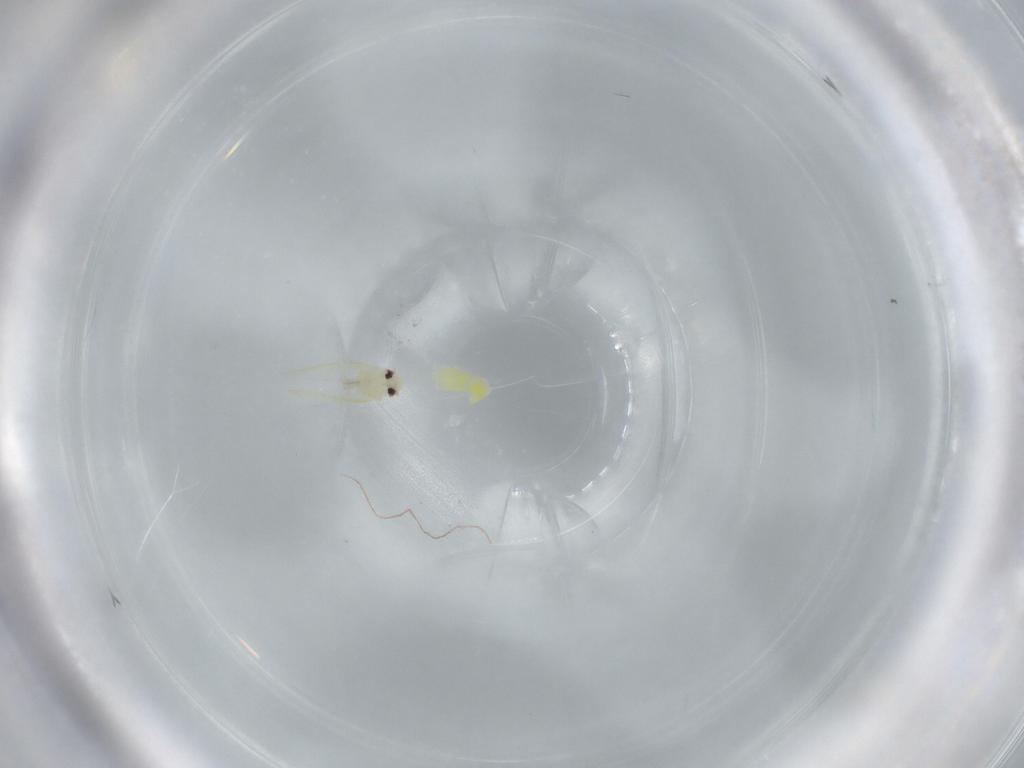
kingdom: Animalia
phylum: Arthropoda
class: Insecta
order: Hemiptera
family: Aleyrodidae
